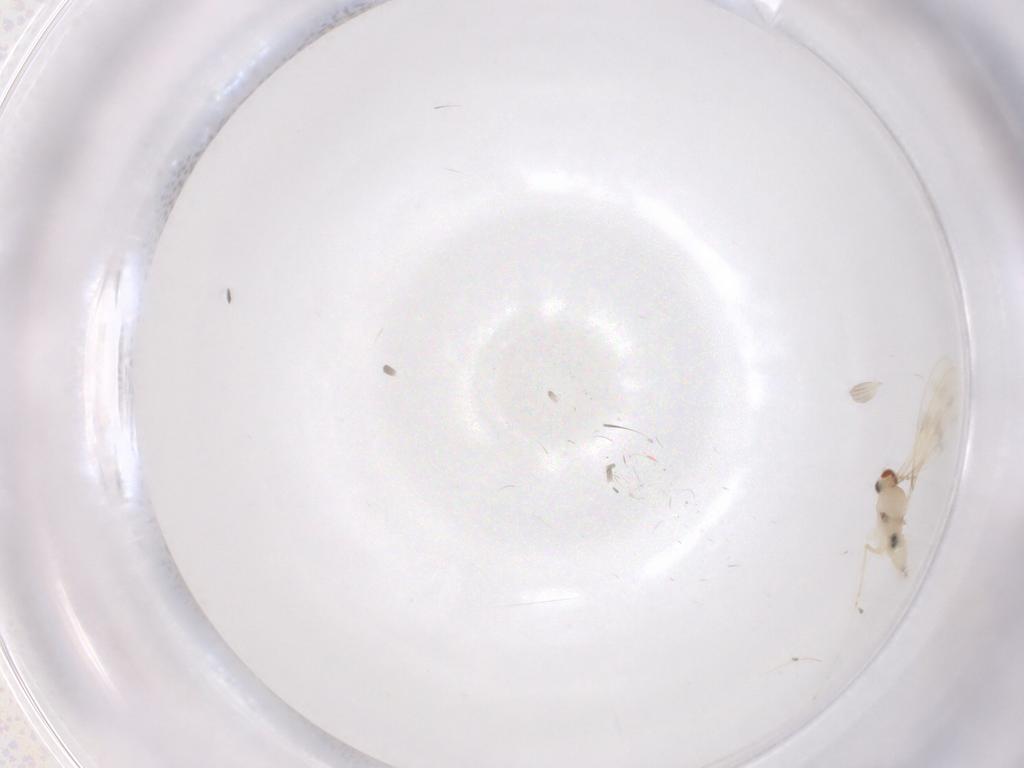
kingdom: Animalia
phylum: Arthropoda
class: Insecta
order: Diptera
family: Cecidomyiidae
